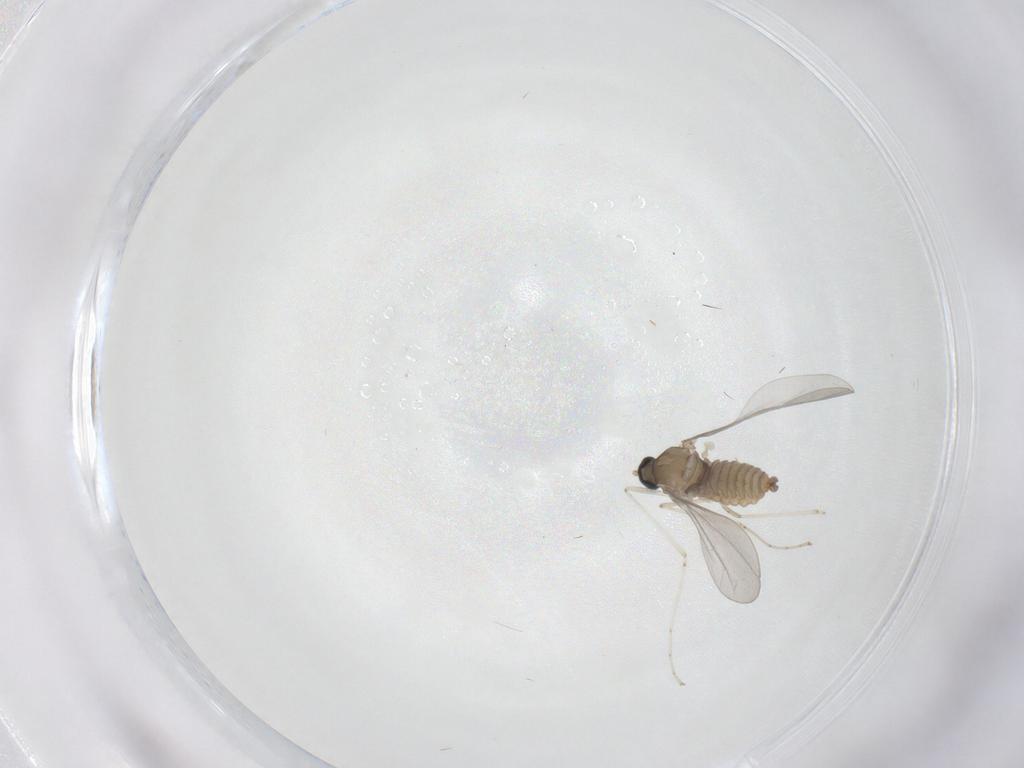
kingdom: Animalia
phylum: Arthropoda
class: Insecta
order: Diptera
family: Cecidomyiidae
